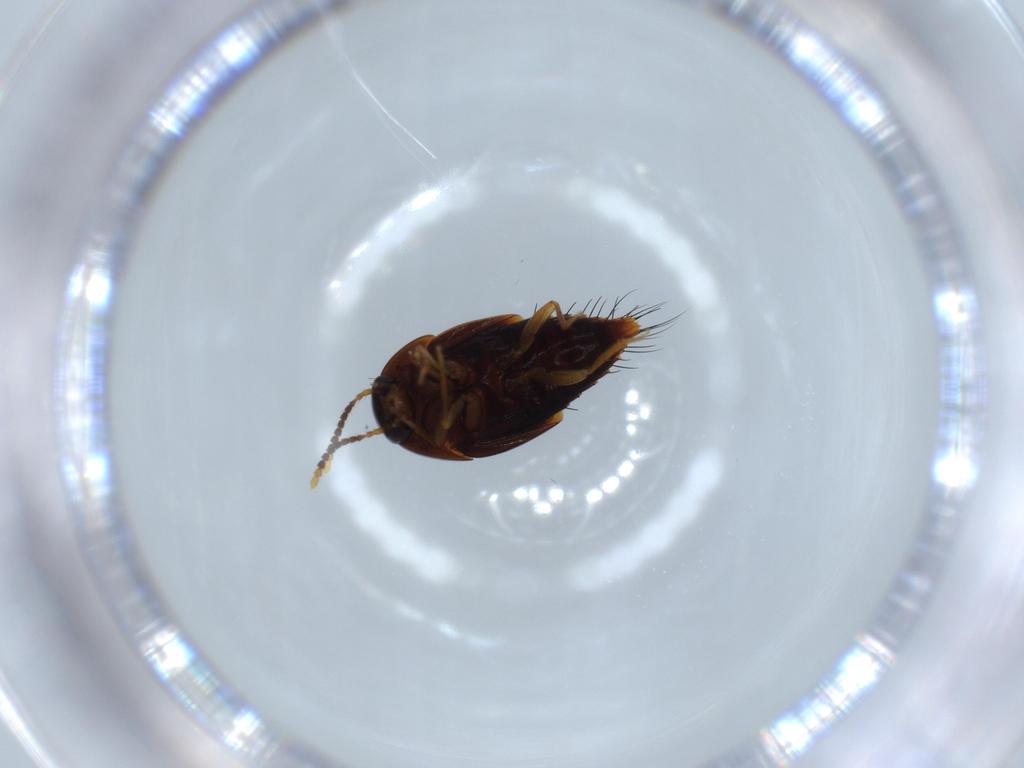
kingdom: Animalia
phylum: Arthropoda
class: Insecta
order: Coleoptera
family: Staphylinidae
